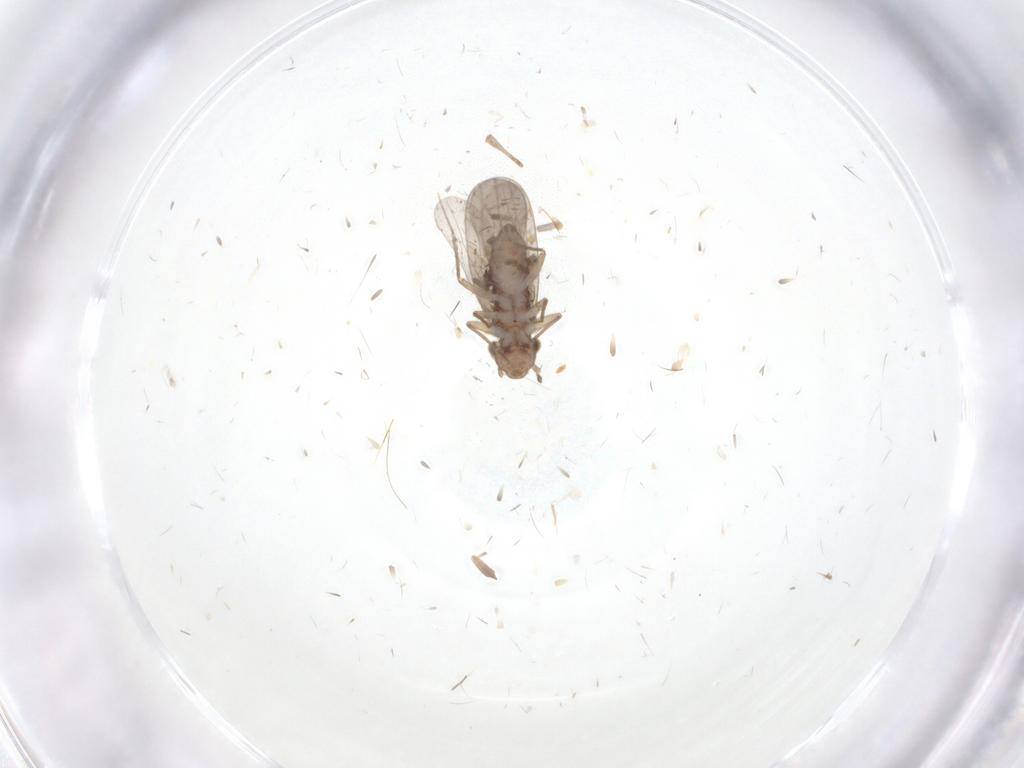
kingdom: Animalia
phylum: Arthropoda
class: Insecta
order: Psocodea
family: Lepidopsocidae
